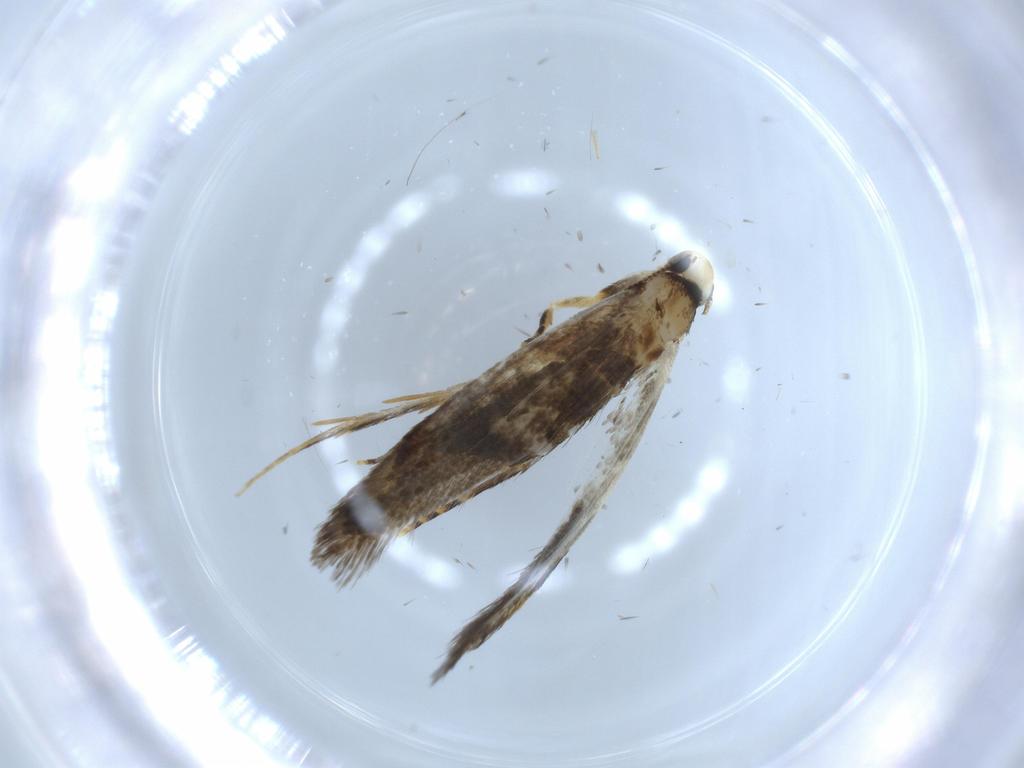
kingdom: Animalia
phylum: Arthropoda
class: Insecta
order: Lepidoptera
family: Tineidae
